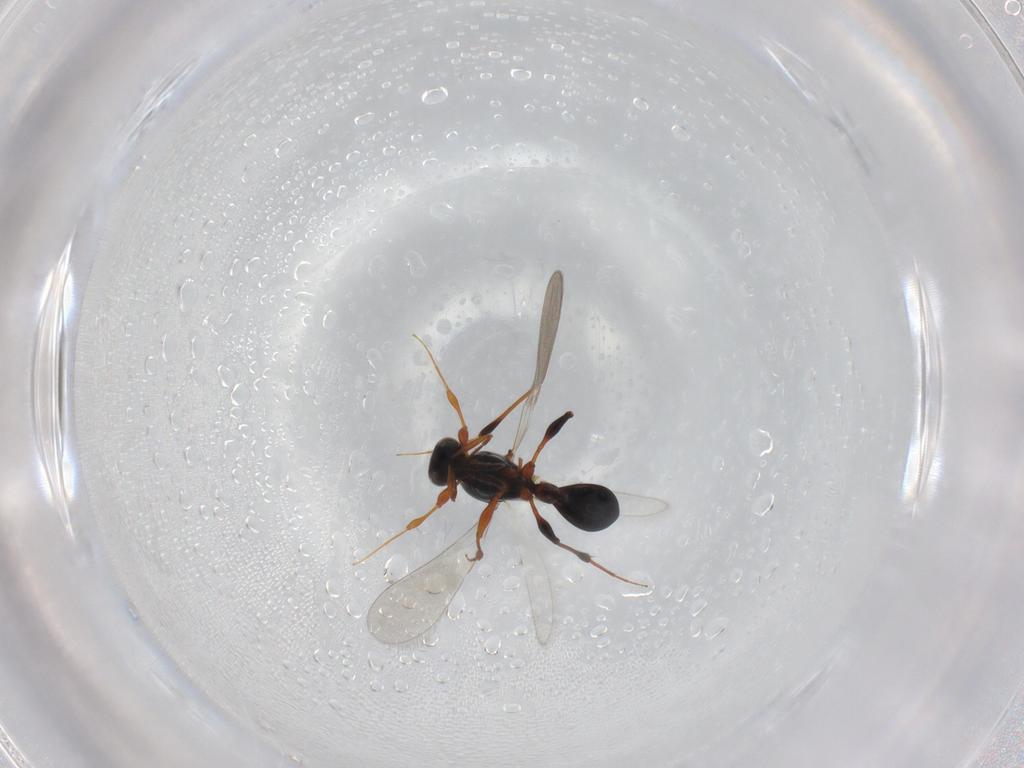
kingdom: Animalia
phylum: Arthropoda
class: Insecta
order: Hymenoptera
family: Platygastridae
